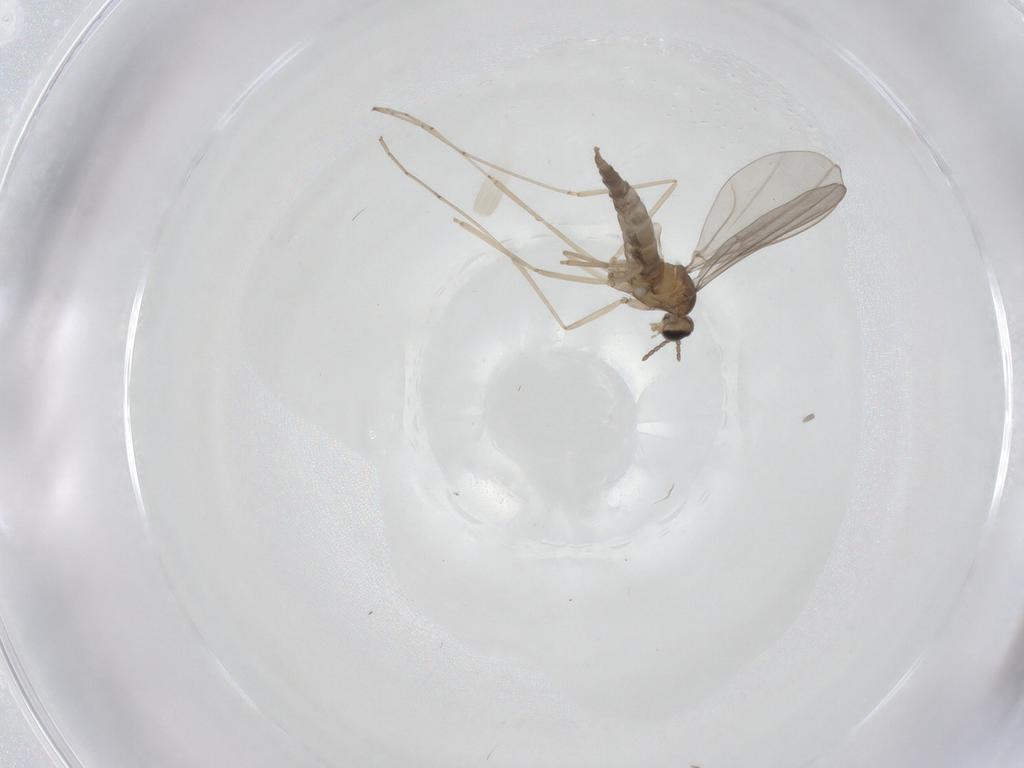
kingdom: Animalia
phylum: Arthropoda
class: Insecta
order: Diptera
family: Cecidomyiidae
